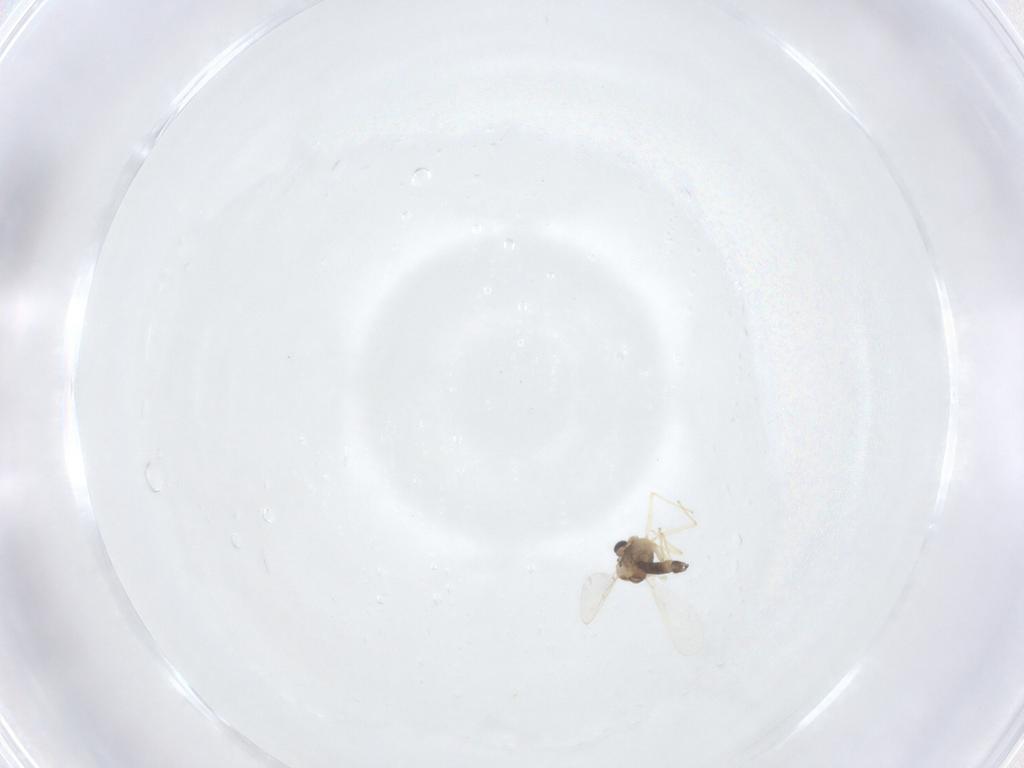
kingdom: Animalia
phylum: Arthropoda
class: Insecta
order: Diptera
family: Chironomidae
